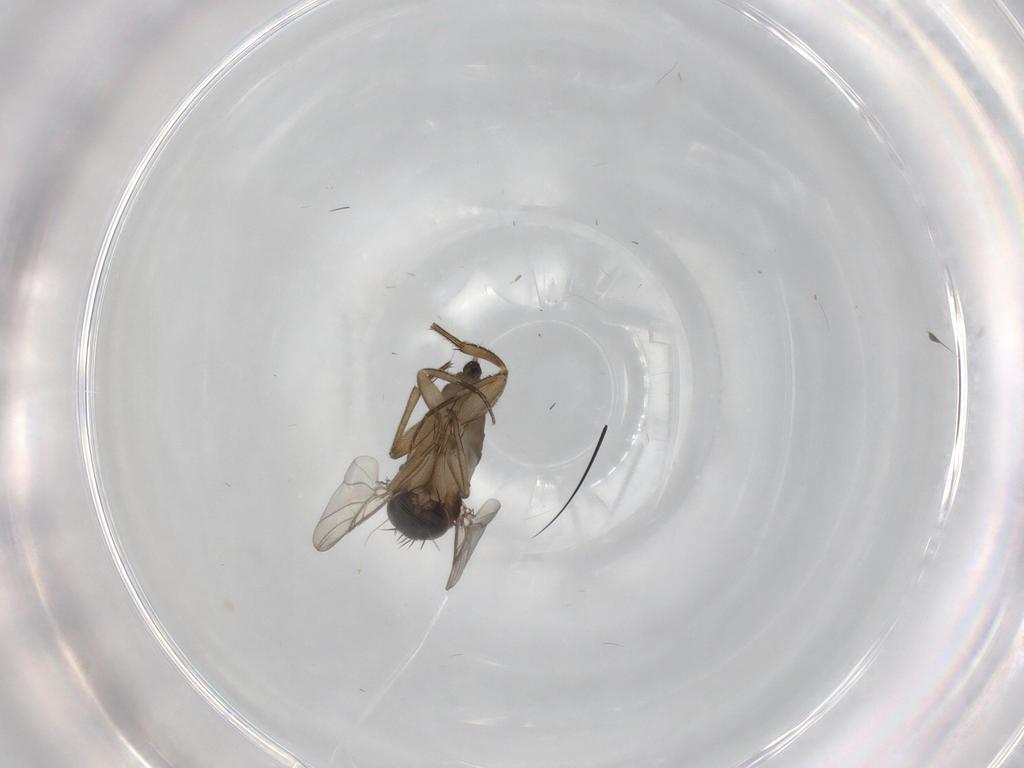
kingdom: Animalia
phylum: Arthropoda
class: Insecta
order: Diptera
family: Phoridae
